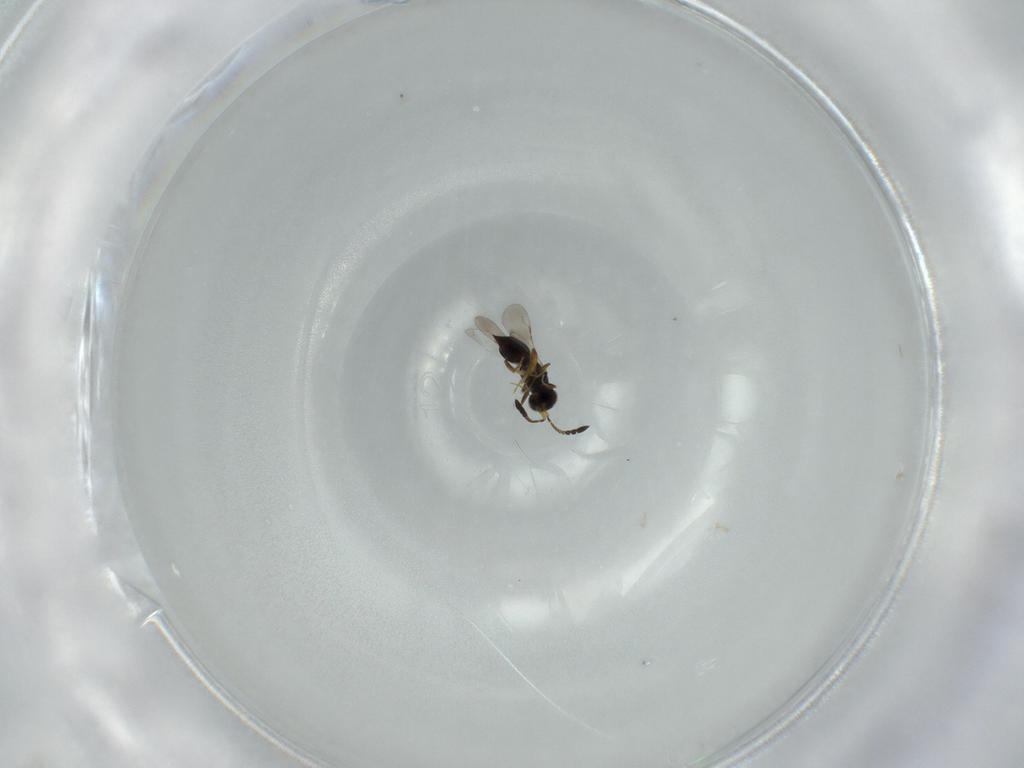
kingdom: Animalia
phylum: Arthropoda
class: Insecta
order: Hymenoptera
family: Ceraphronidae
